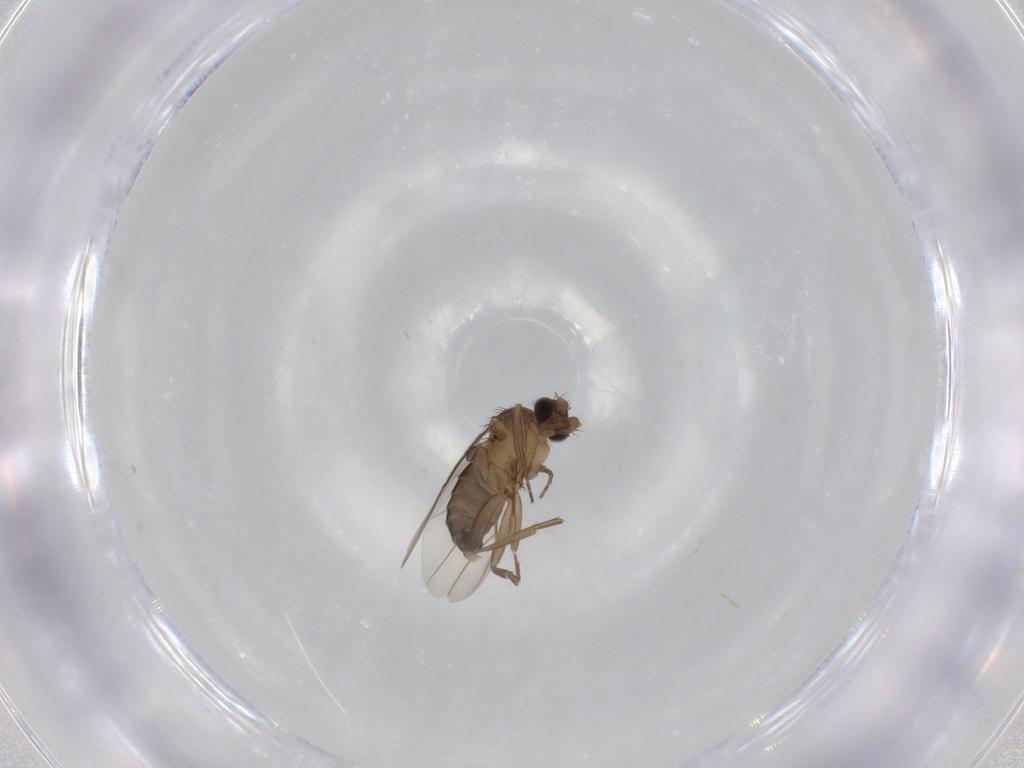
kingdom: Animalia
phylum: Arthropoda
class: Insecta
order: Diptera
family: Phoridae
